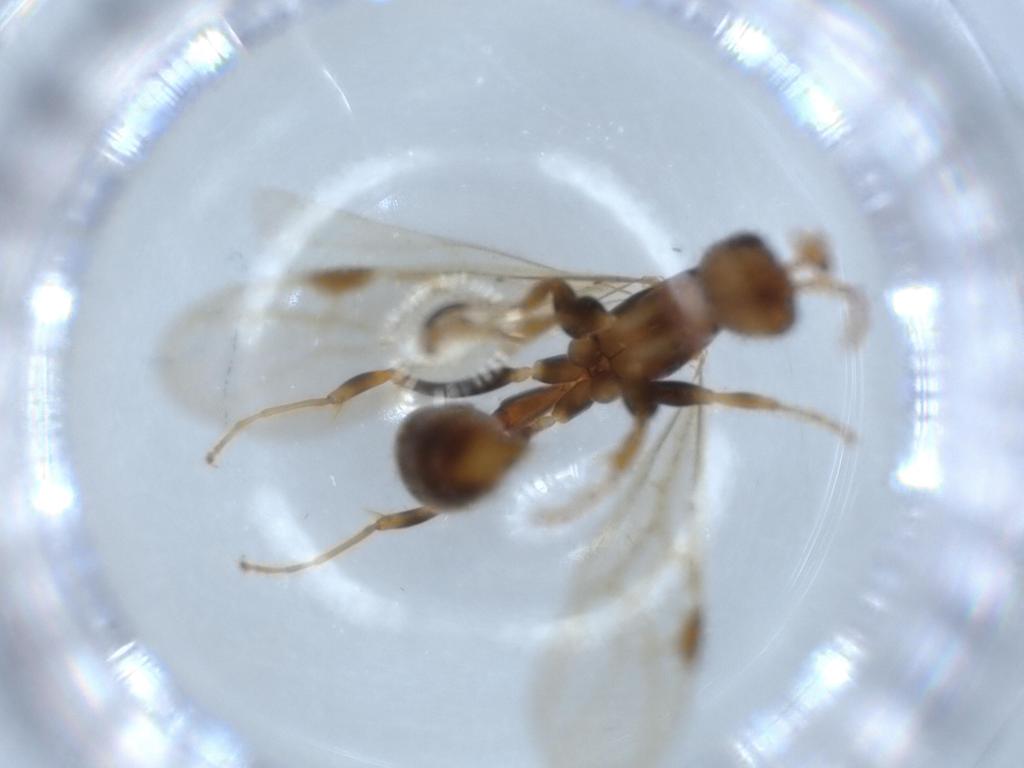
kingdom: Animalia
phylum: Arthropoda
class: Insecta
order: Hymenoptera
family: Formicidae
